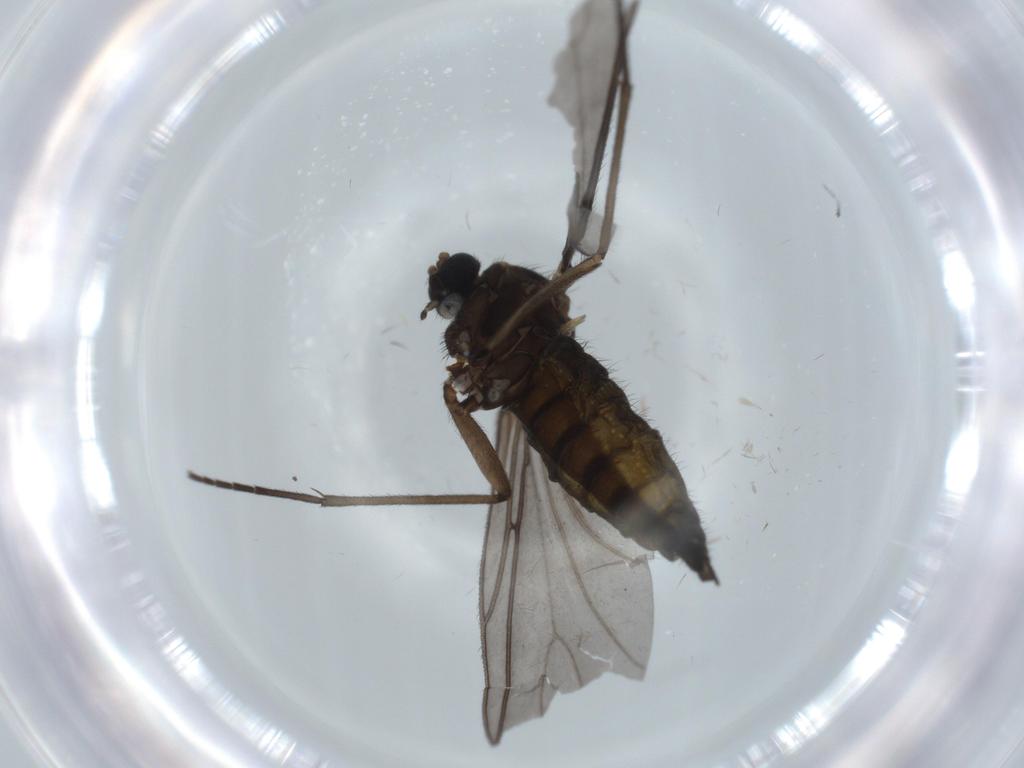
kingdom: Animalia
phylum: Arthropoda
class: Insecta
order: Diptera
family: Sciaridae
